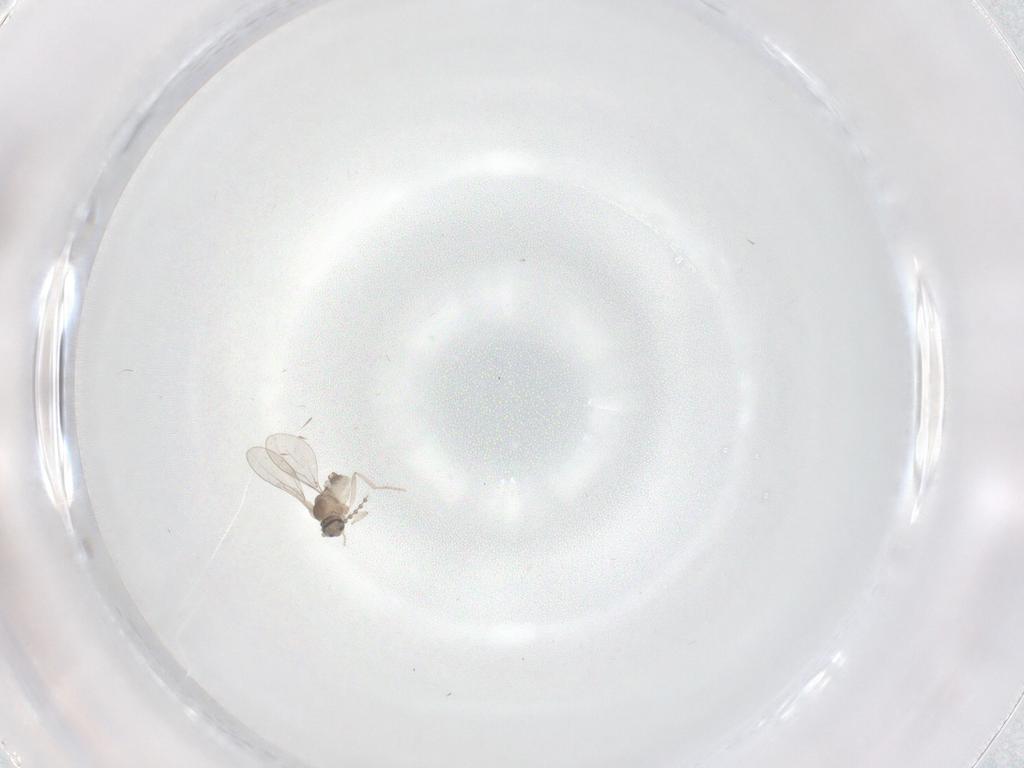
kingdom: Animalia
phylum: Arthropoda
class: Insecta
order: Diptera
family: Cecidomyiidae
